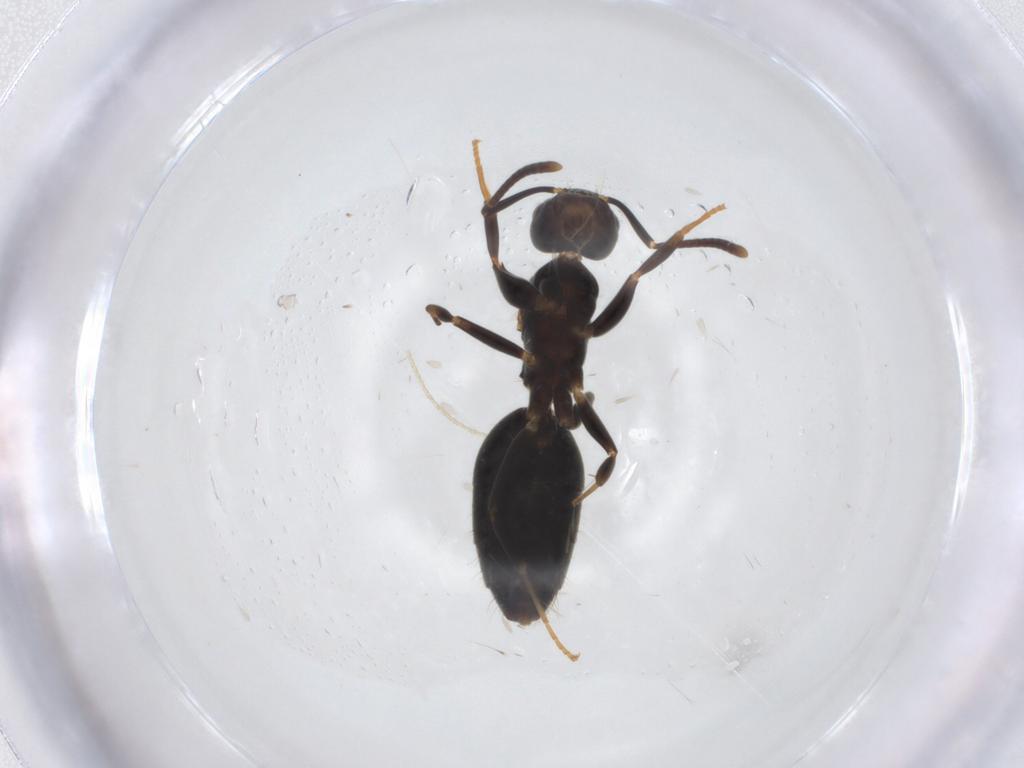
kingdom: Animalia
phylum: Arthropoda
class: Insecta
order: Hymenoptera
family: Formicidae
